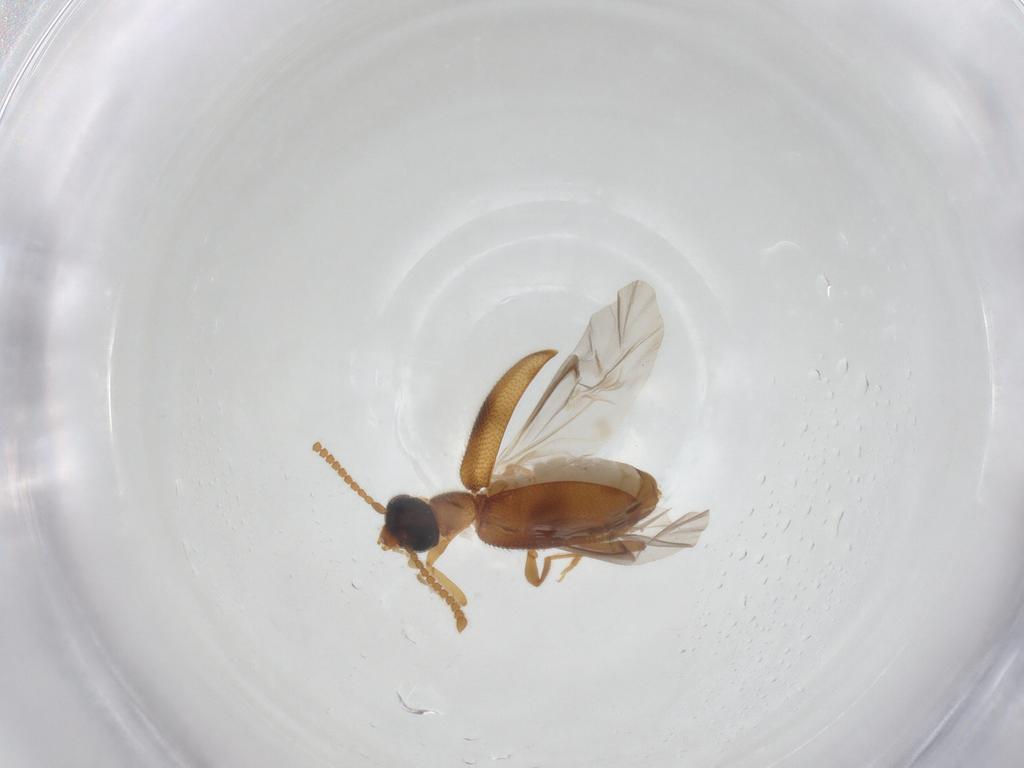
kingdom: Animalia
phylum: Arthropoda
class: Insecta
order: Coleoptera
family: Aderidae
